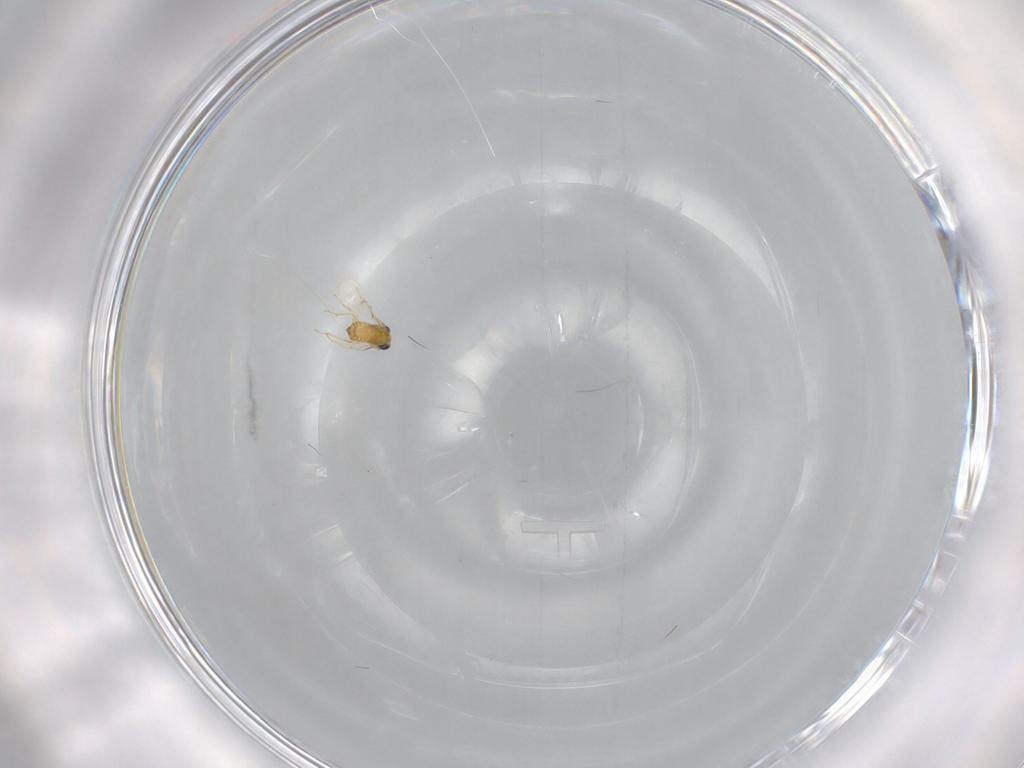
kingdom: Animalia
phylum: Arthropoda
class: Insecta
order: Hymenoptera
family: Trichogrammatidae
